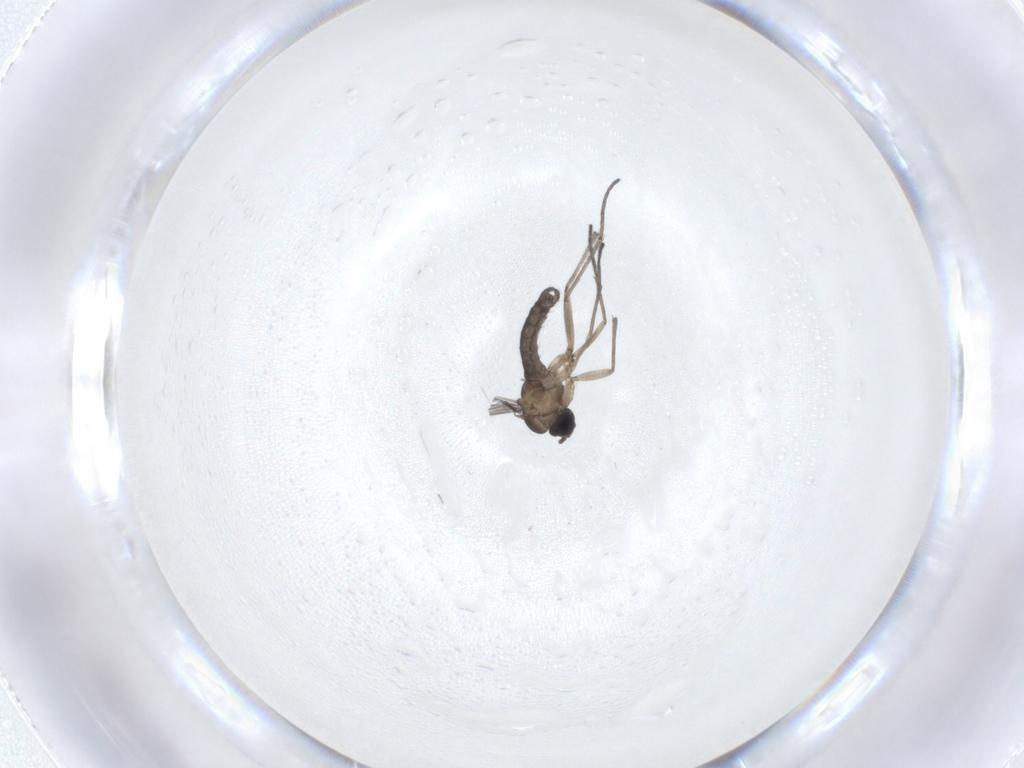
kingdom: Animalia
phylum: Arthropoda
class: Insecta
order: Diptera
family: Sciaridae
